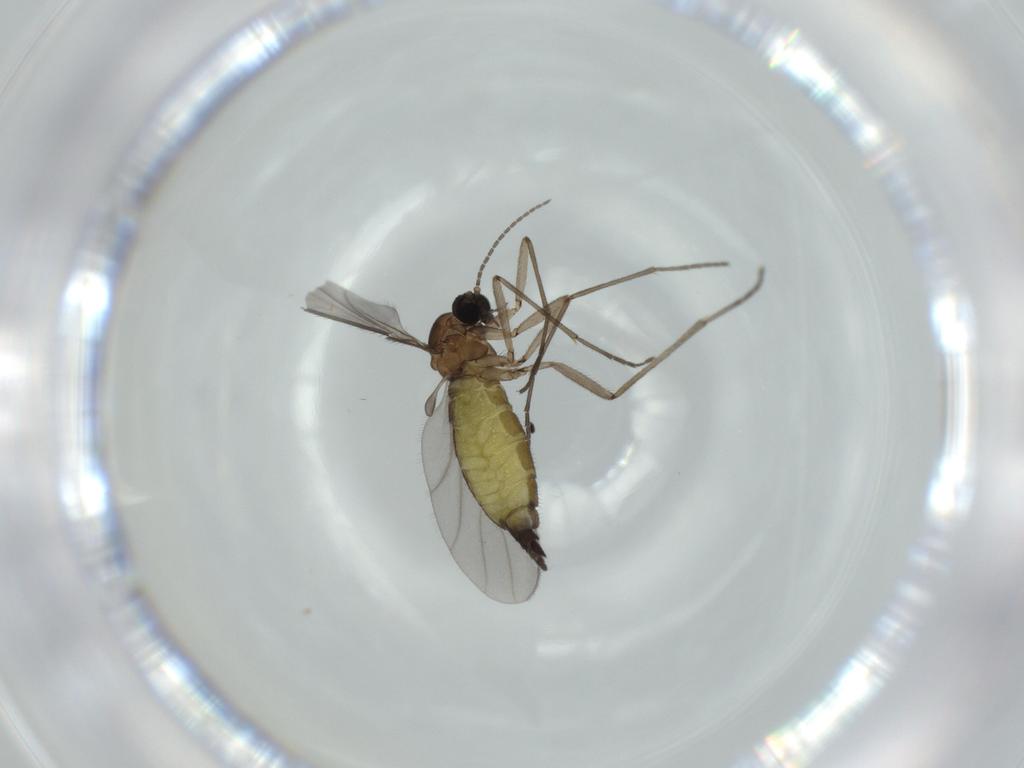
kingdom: Animalia
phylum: Arthropoda
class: Insecta
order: Diptera
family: Sciaridae
